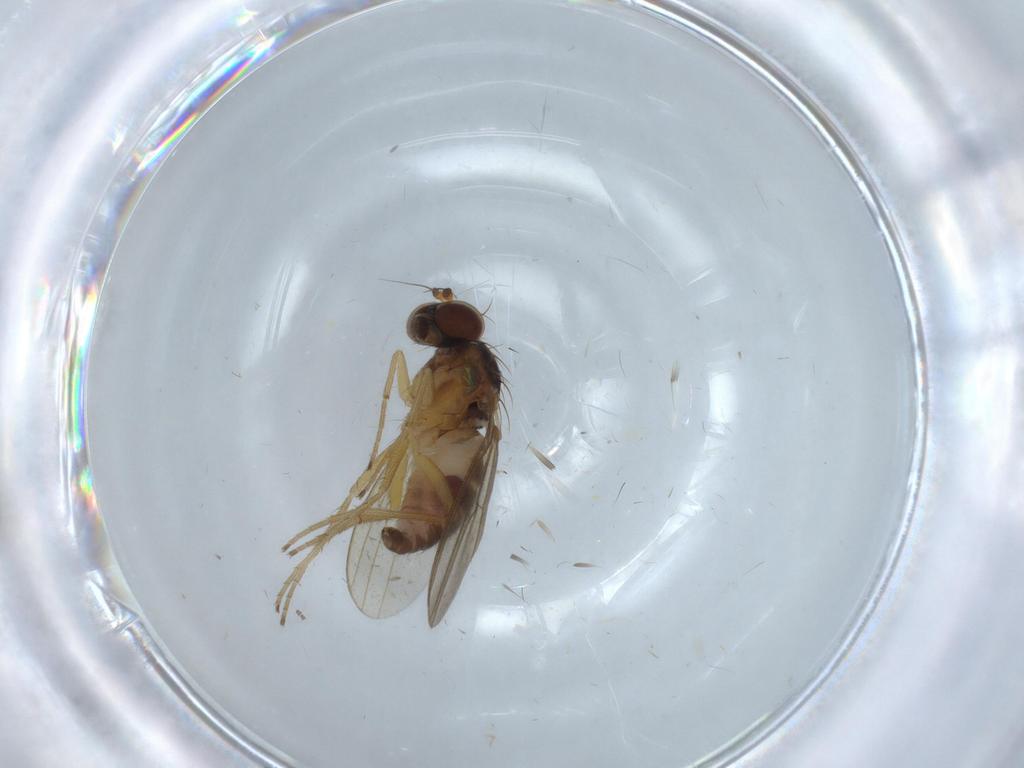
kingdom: Animalia
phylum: Arthropoda
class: Insecta
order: Diptera
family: Dolichopodidae
